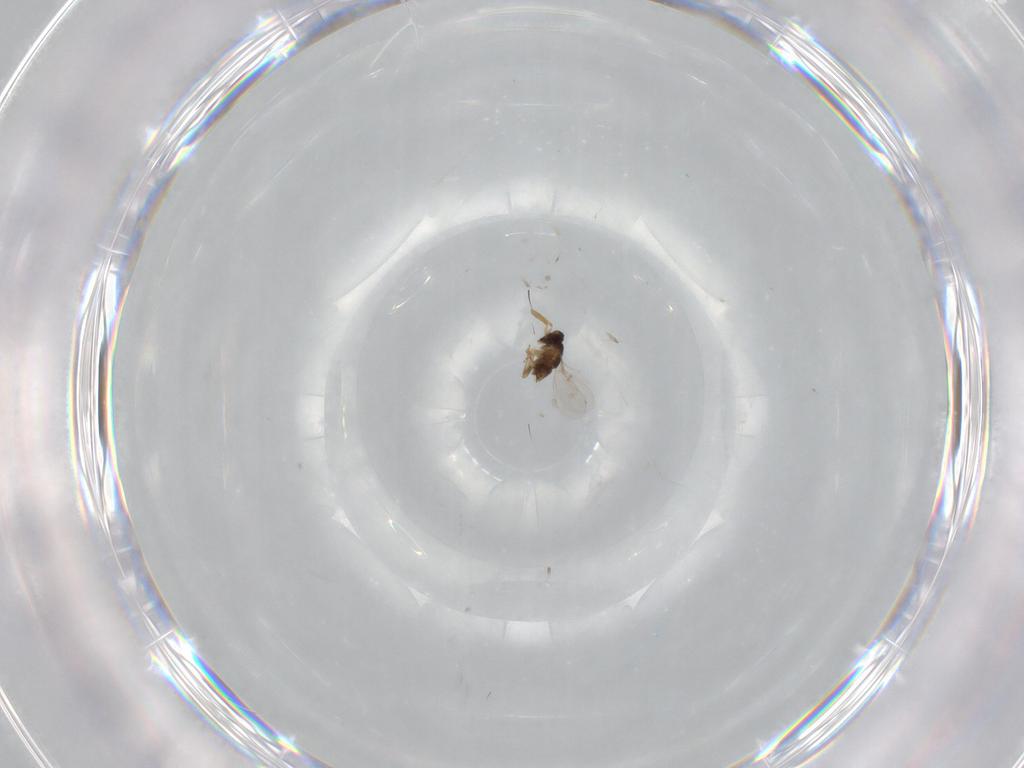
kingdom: Animalia
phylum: Arthropoda
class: Insecta
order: Hymenoptera
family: Encyrtidae
